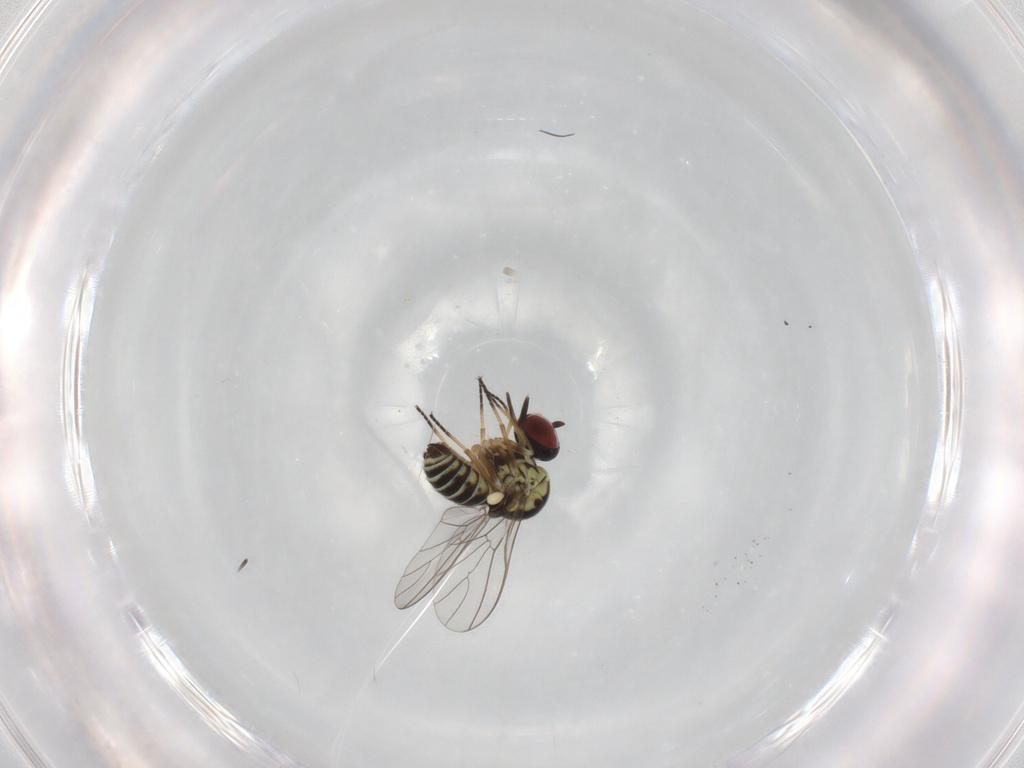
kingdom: Animalia
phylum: Arthropoda
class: Insecta
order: Diptera
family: Bombyliidae
